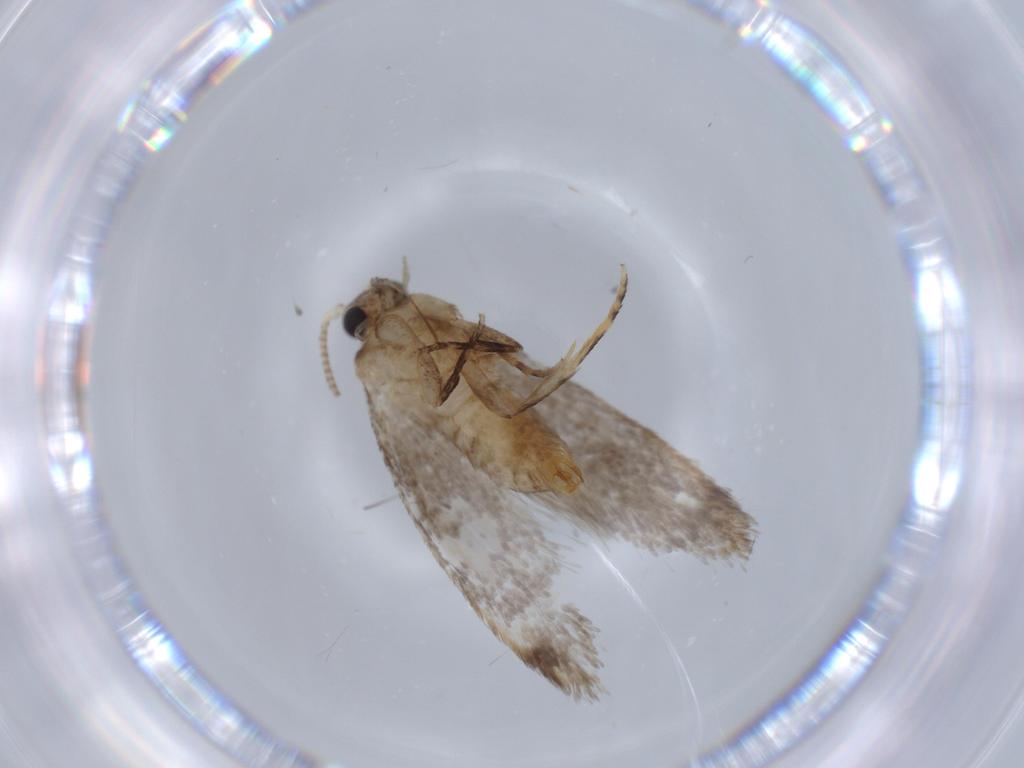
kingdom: Animalia
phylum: Arthropoda
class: Insecta
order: Lepidoptera
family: Tineidae
